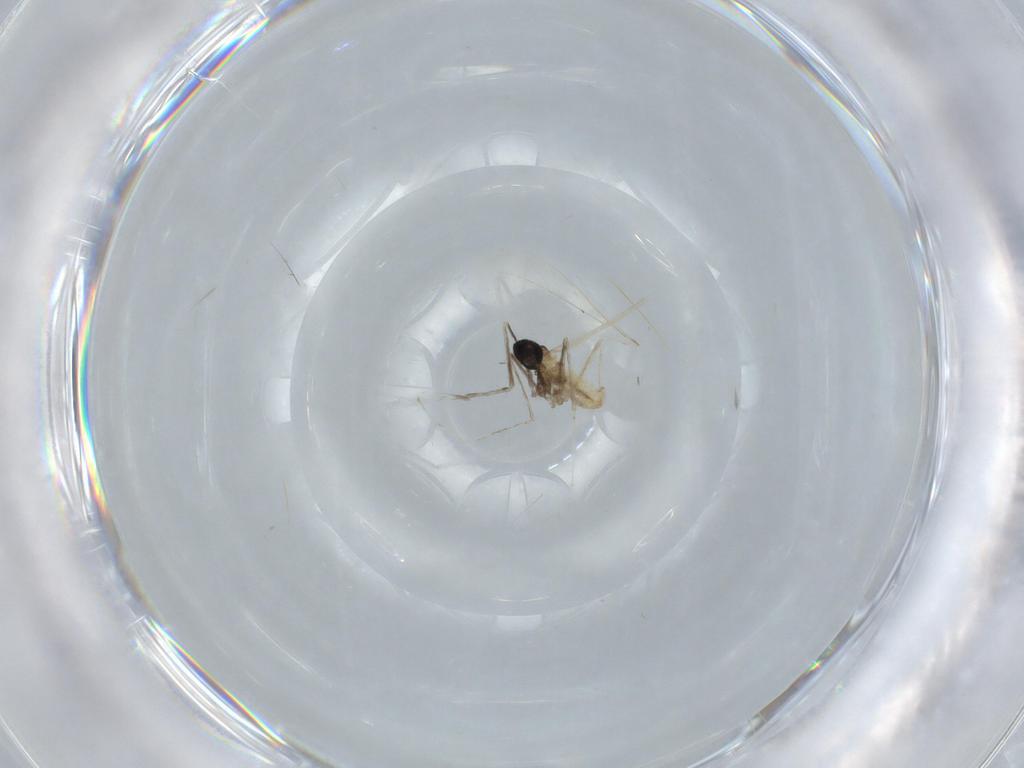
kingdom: Animalia
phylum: Arthropoda
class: Insecta
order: Diptera
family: Cecidomyiidae
